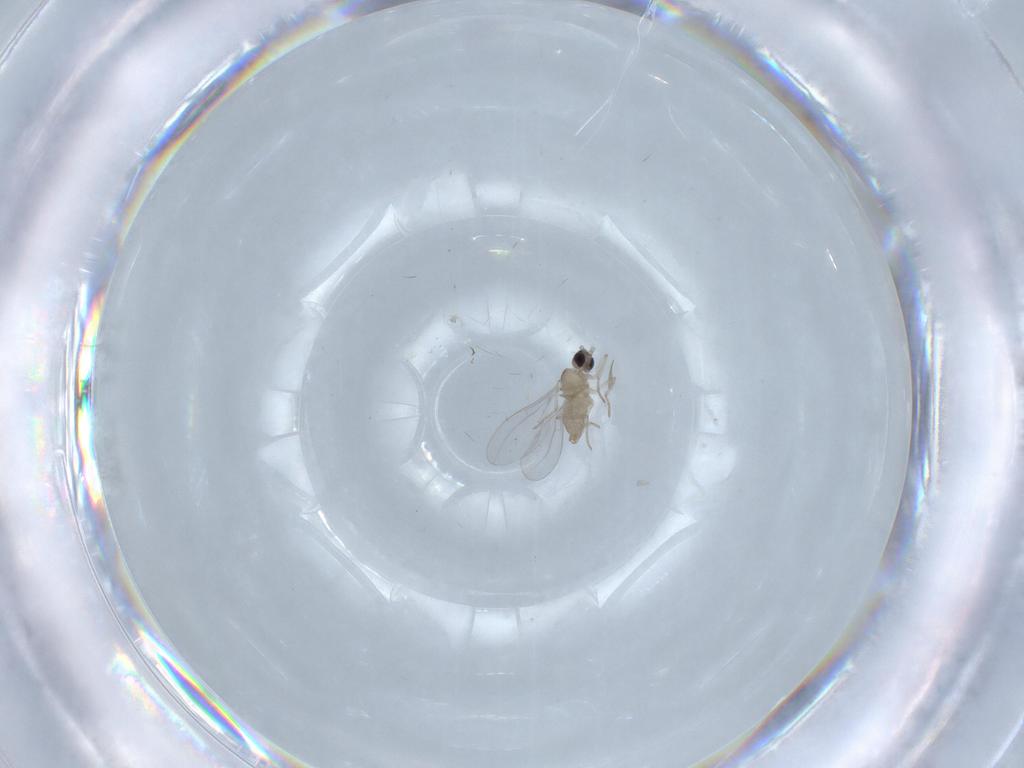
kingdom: Animalia
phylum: Arthropoda
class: Insecta
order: Diptera
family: Cecidomyiidae
